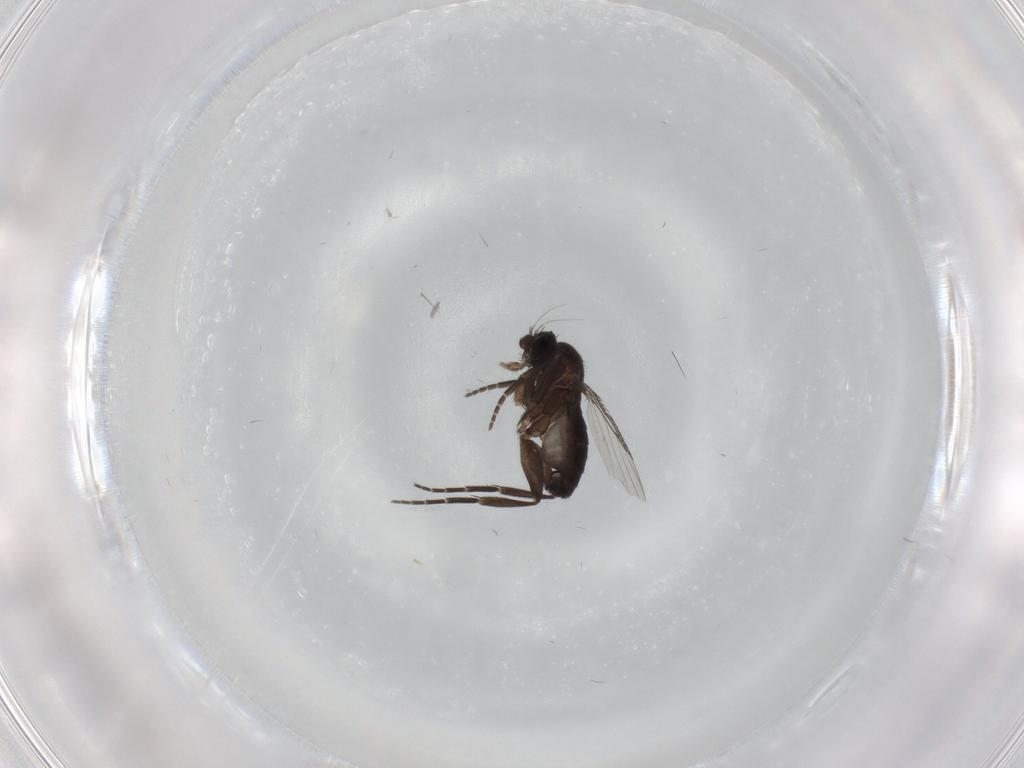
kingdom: Animalia
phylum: Arthropoda
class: Insecta
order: Diptera
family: Phoridae
